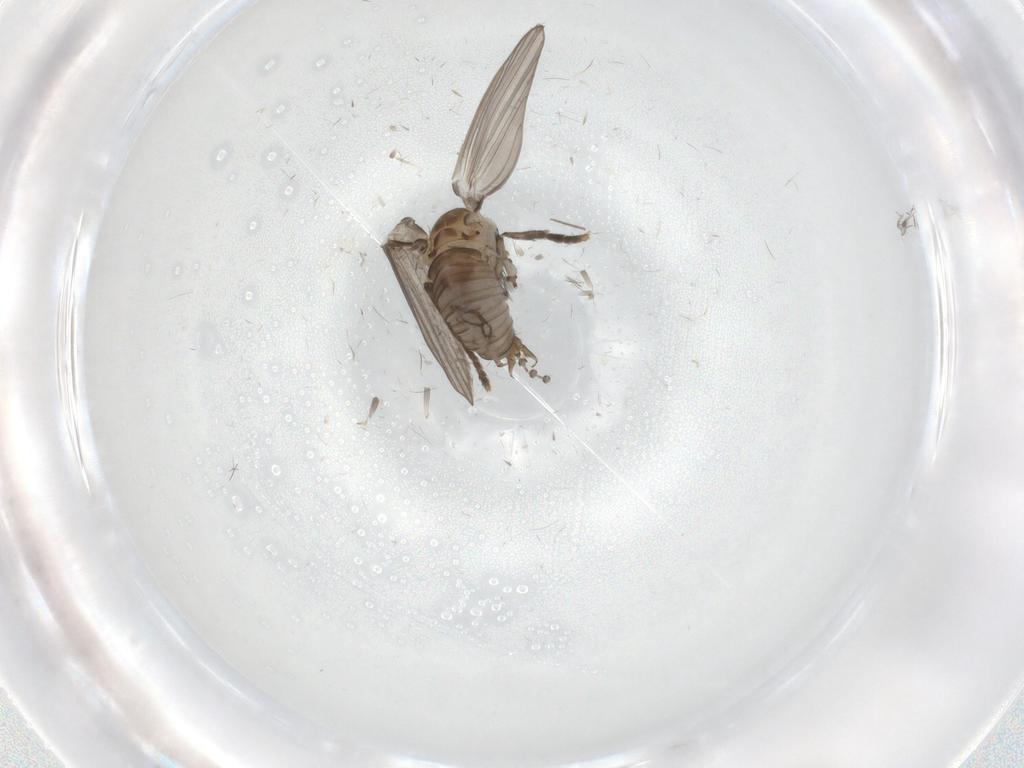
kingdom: Animalia
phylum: Arthropoda
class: Insecta
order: Diptera
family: Psychodidae
